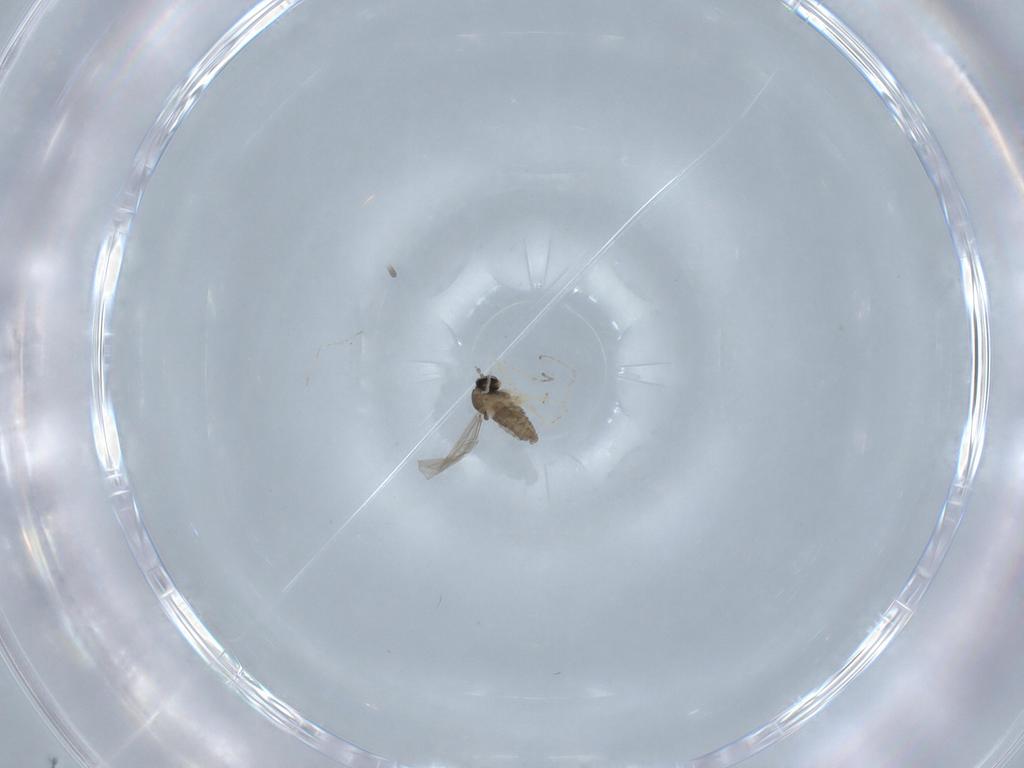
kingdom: Animalia
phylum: Arthropoda
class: Insecta
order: Diptera
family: Cecidomyiidae
